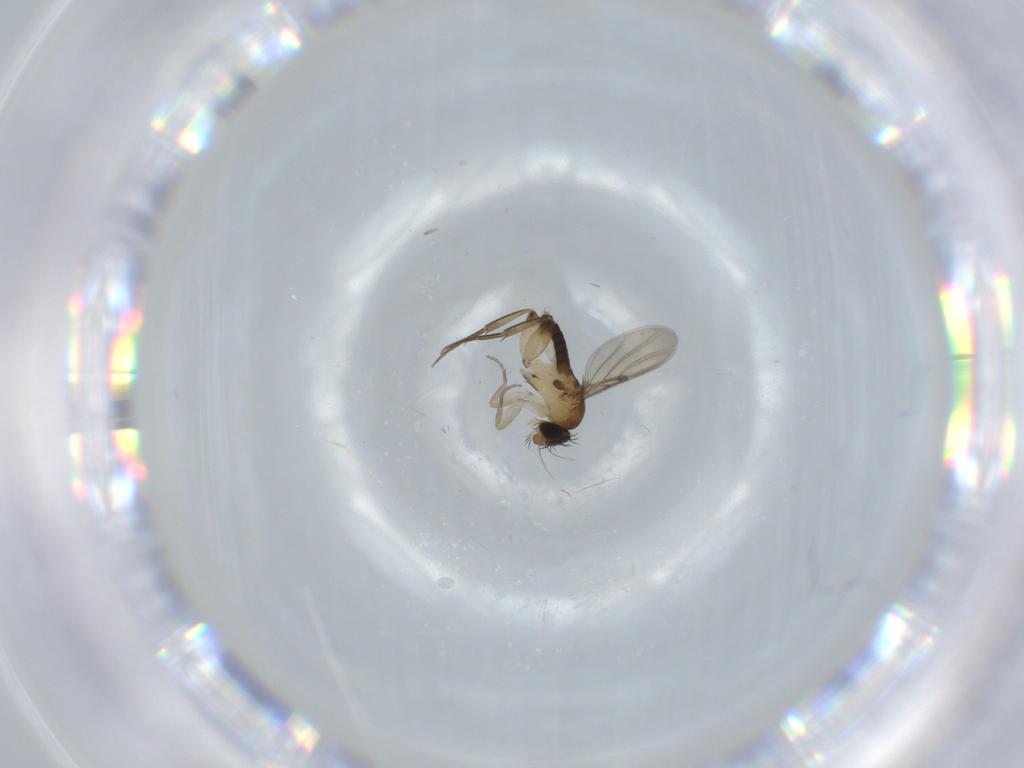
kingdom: Animalia
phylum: Arthropoda
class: Insecta
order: Diptera
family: Phoridae
